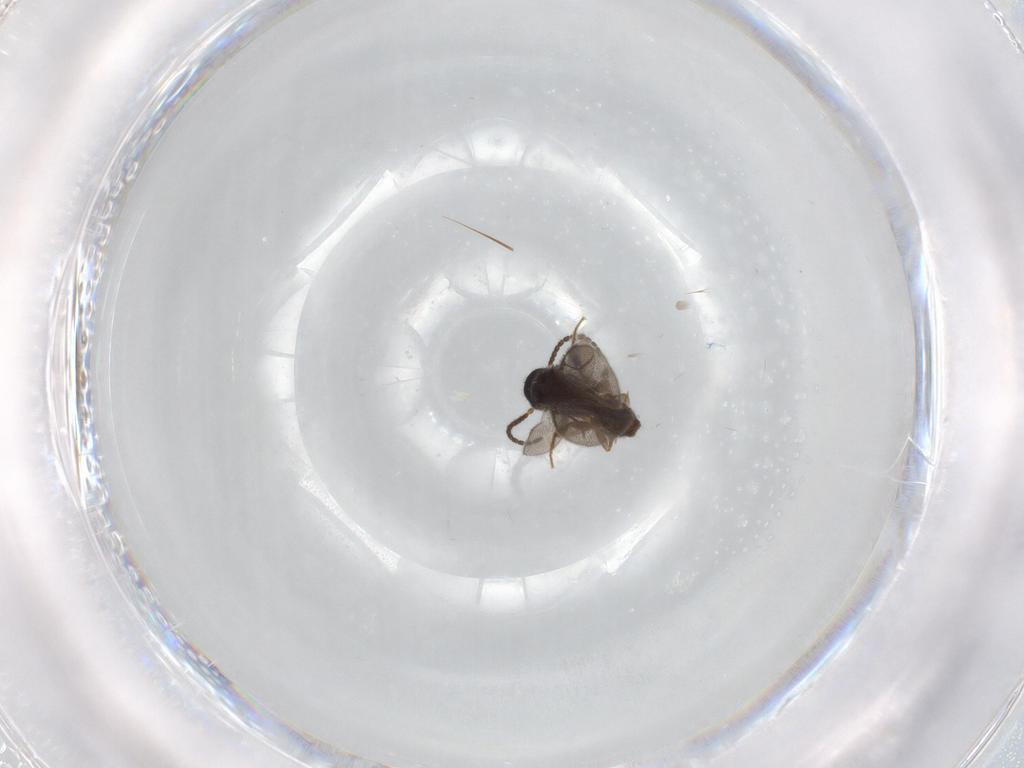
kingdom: Animalia
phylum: Arthropoda
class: Insecta
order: Hymenoptera
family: Bethylidae
